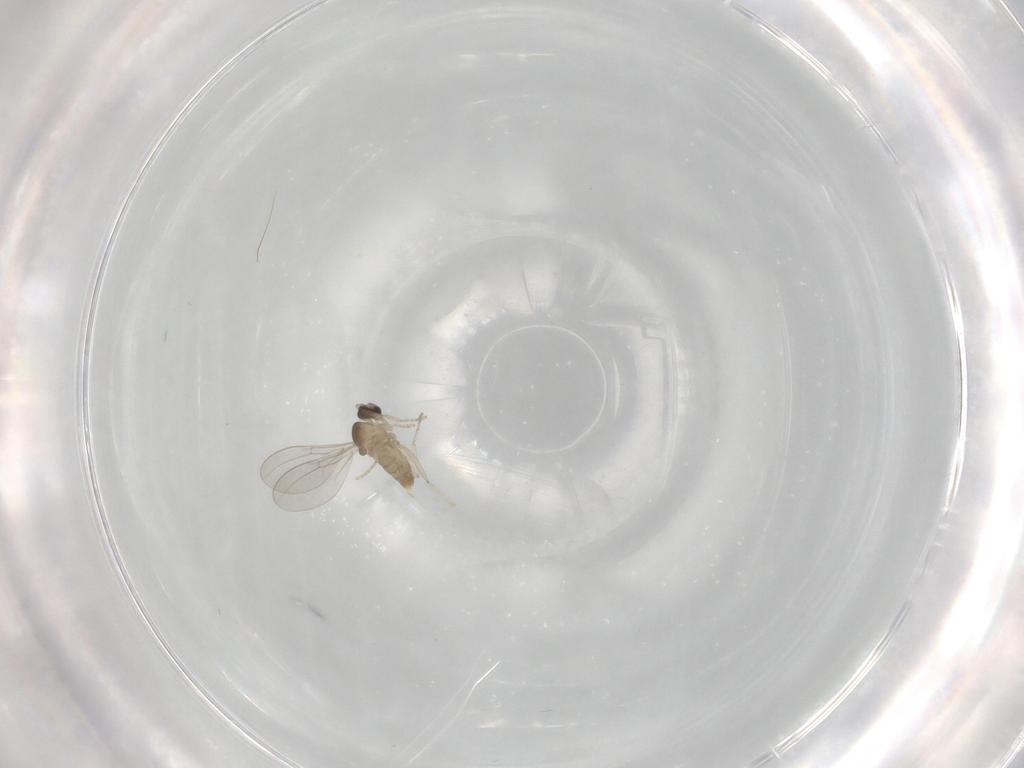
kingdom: Animalia
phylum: Arthropoda
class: Insecta
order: Diptera
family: Cecidomyiidae
